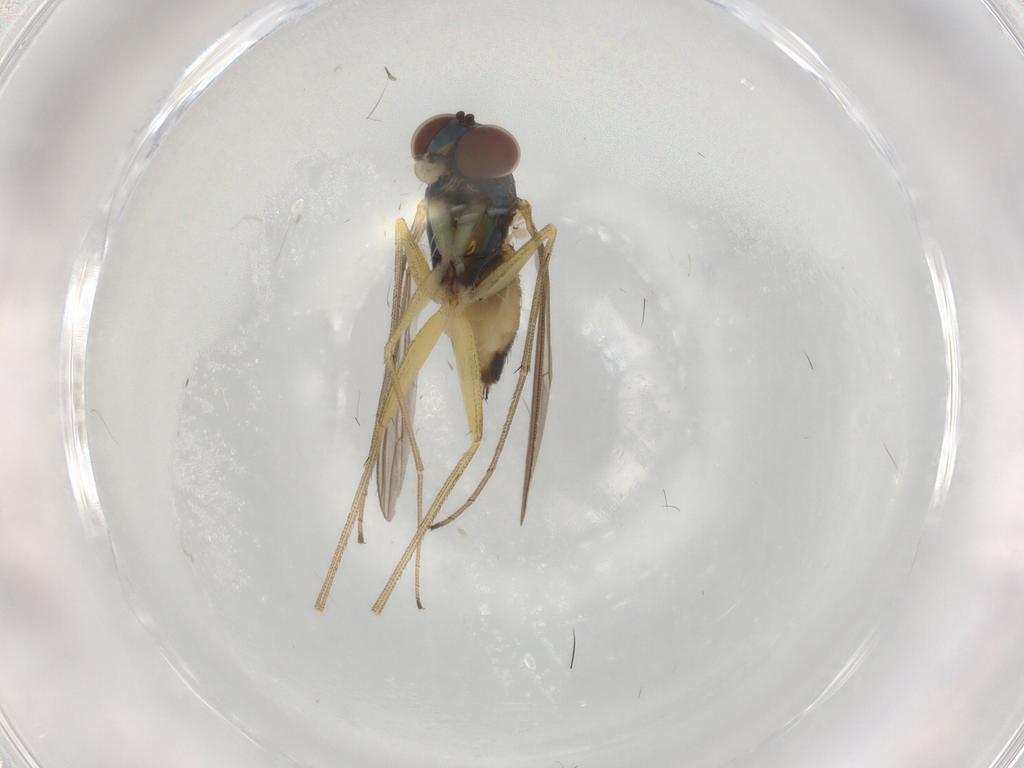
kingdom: Animalia
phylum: Arthropoda
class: Insecta
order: Diptera
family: Dolichopodidae
